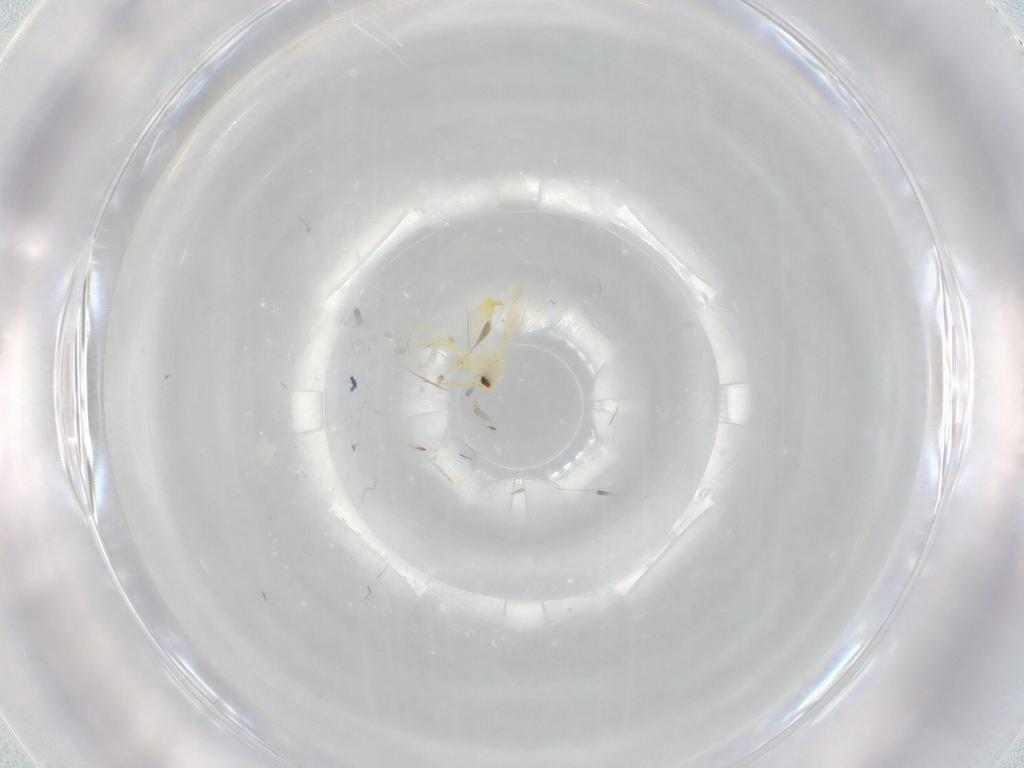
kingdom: Animalia
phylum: Arthropoda
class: Insecta
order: Hemiptera
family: Aleyrodidae
